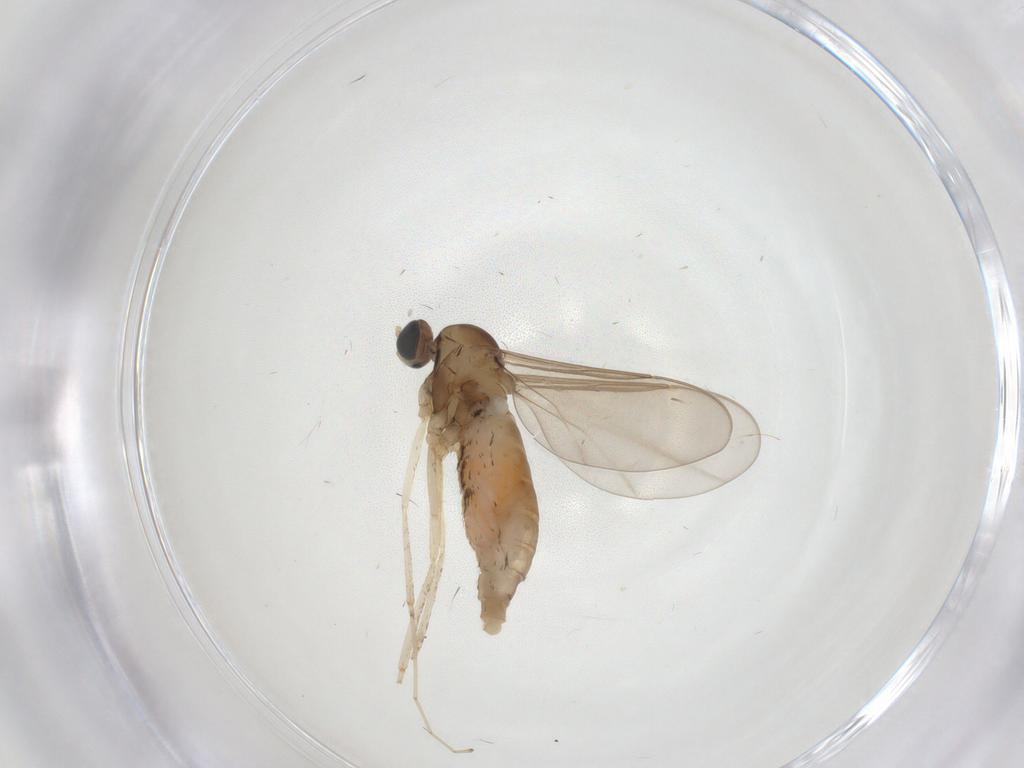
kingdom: Animalia
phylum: Arthropoda
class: Insecta
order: Diptera
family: Cecidomyiidae
